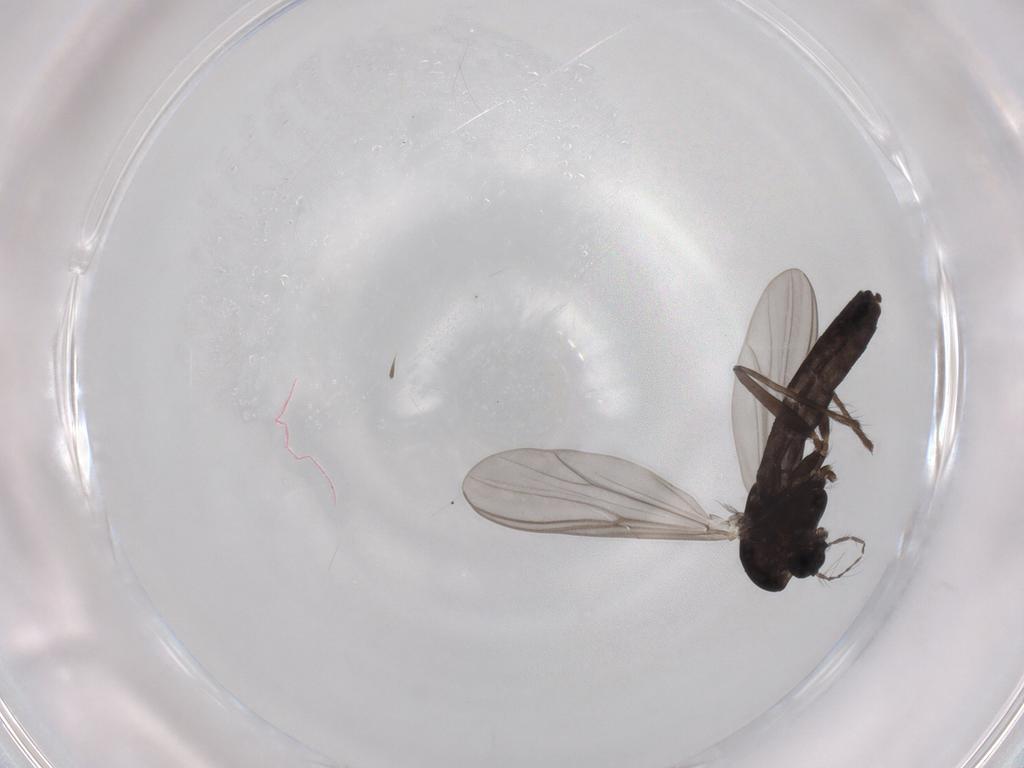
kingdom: Animalia
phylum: Arthropoda
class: Insecta
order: Diptera
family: Chironomidae
